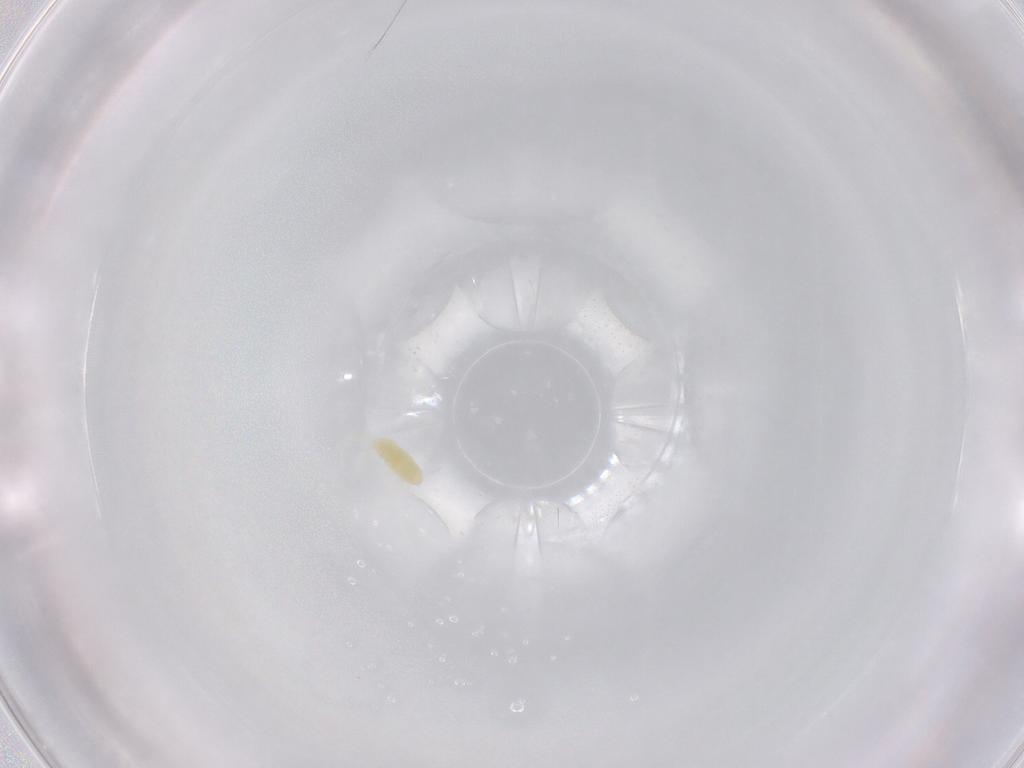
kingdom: Animalia
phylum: Arthropoda
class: Arachnida
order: Trombidiformes
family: Tetranychidae
